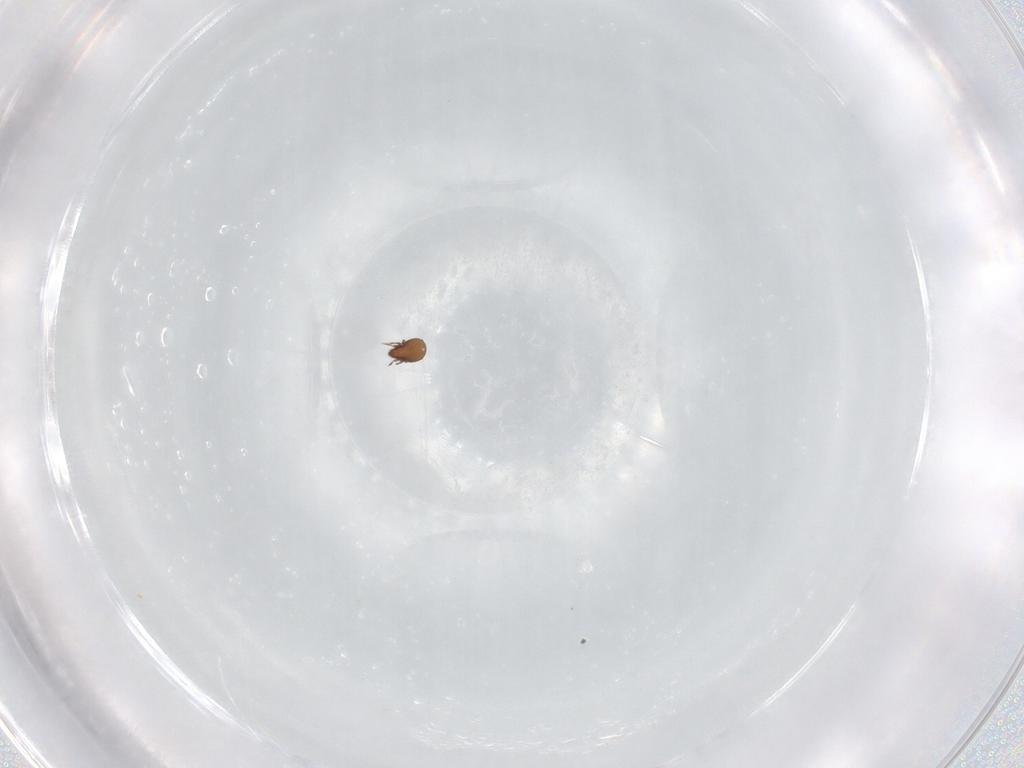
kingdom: Animalia
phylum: Arthropoda
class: Arachnida
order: Sarcoptiformes
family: Tectocepheidae
